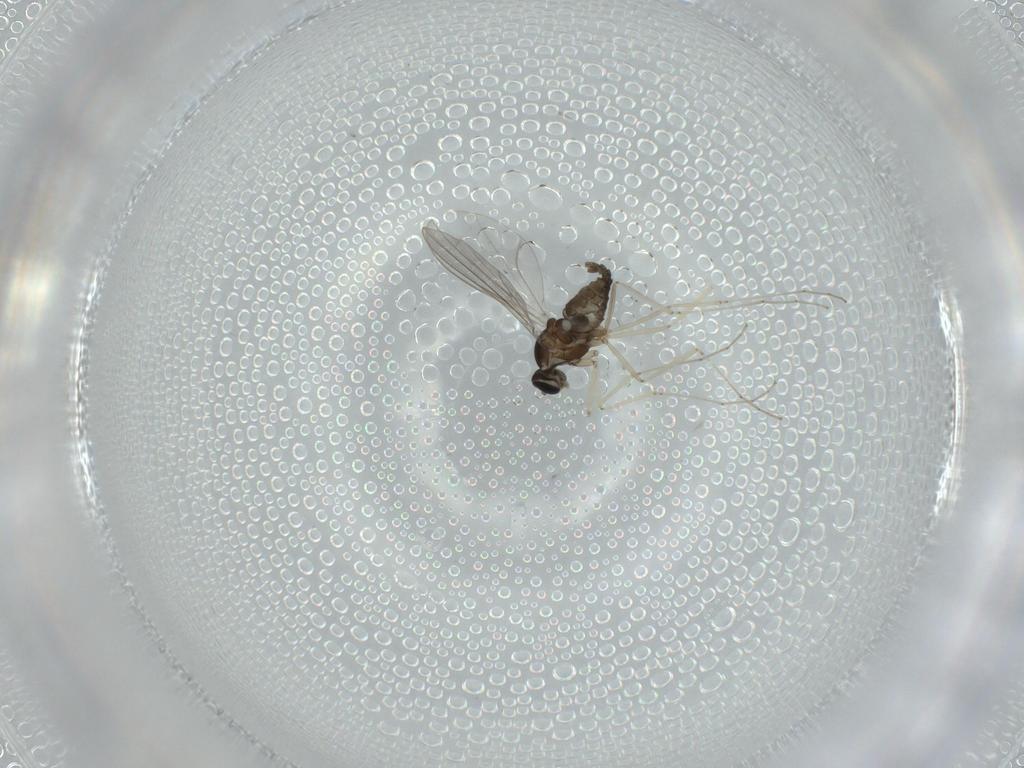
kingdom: Animalia
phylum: Arthropoda
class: Insecta
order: Diptera
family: Cecidomyiidae
